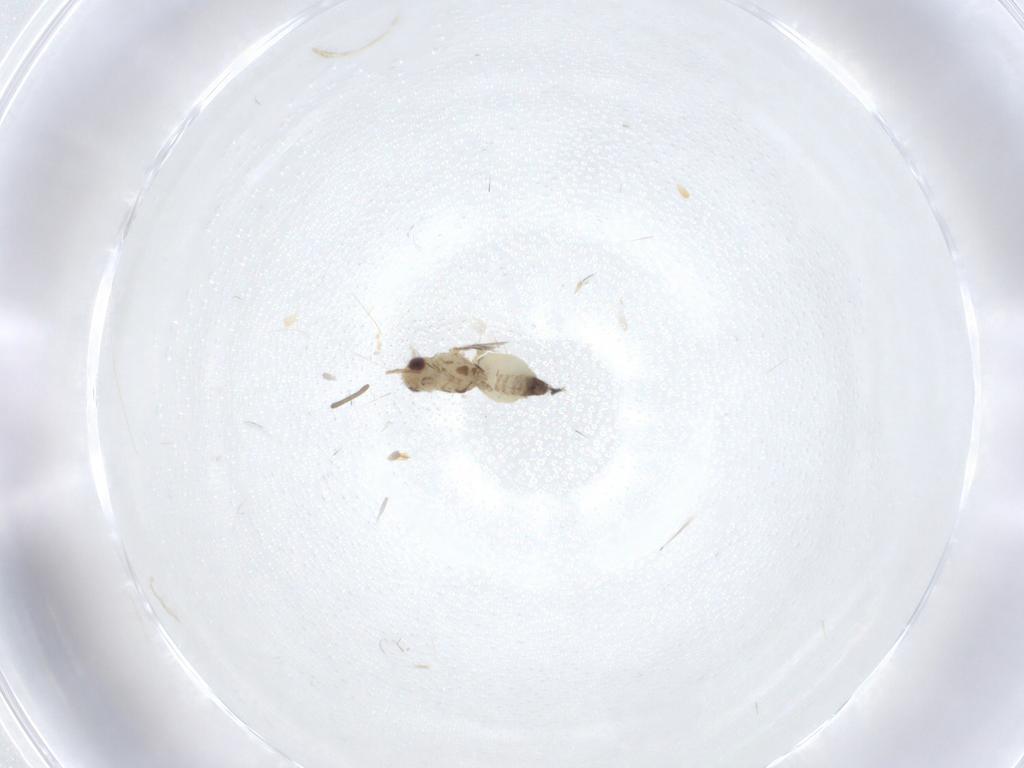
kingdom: Animalia
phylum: Arthropoda
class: Insecta
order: Diptera
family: Agromyzidae
